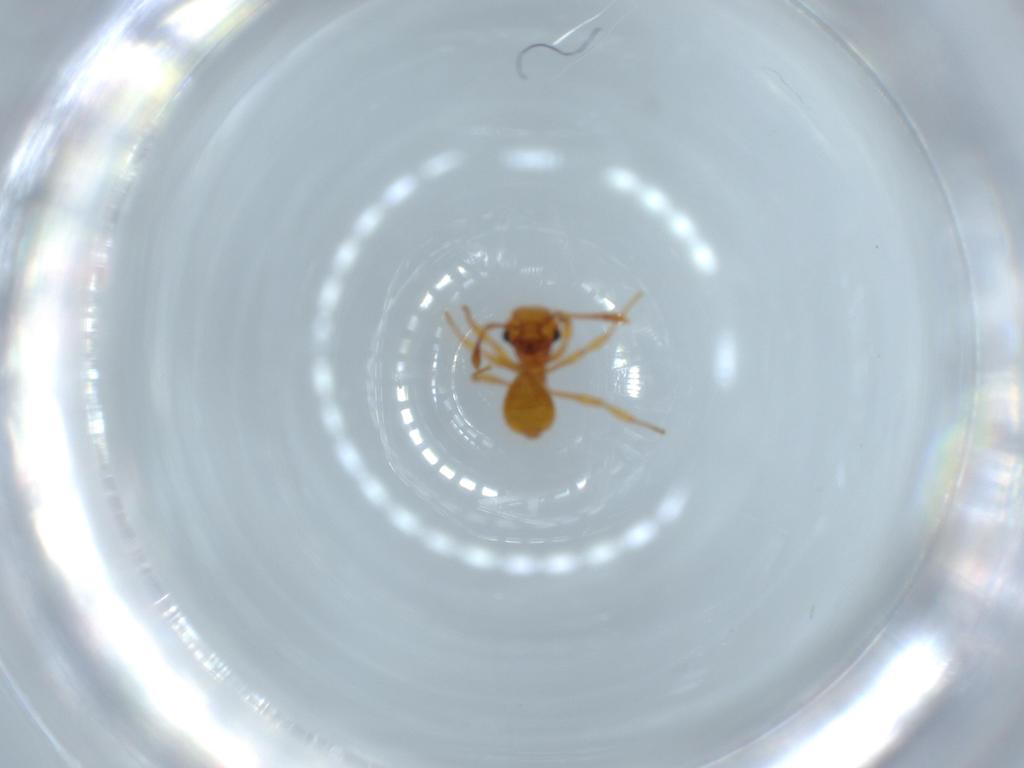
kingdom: Animalia
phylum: Arthropoda
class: Insecta
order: Hymenoptera
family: Formicidae
